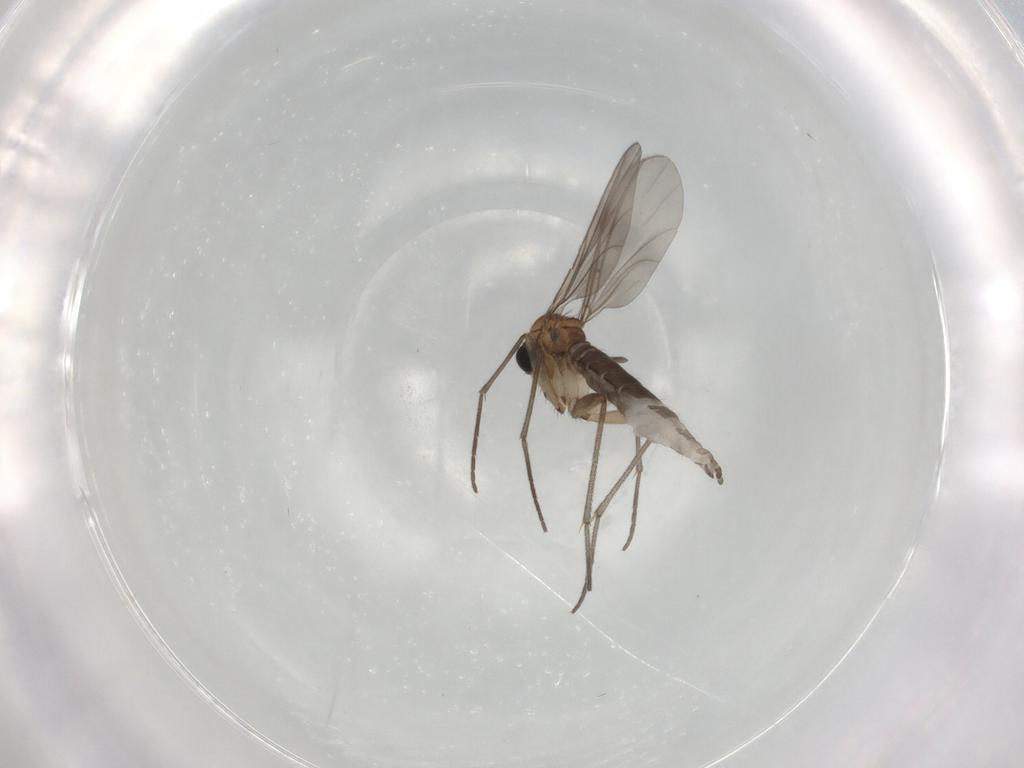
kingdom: Animalia
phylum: Arthropoda
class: Insecta
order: Diptera
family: Sciaridae
